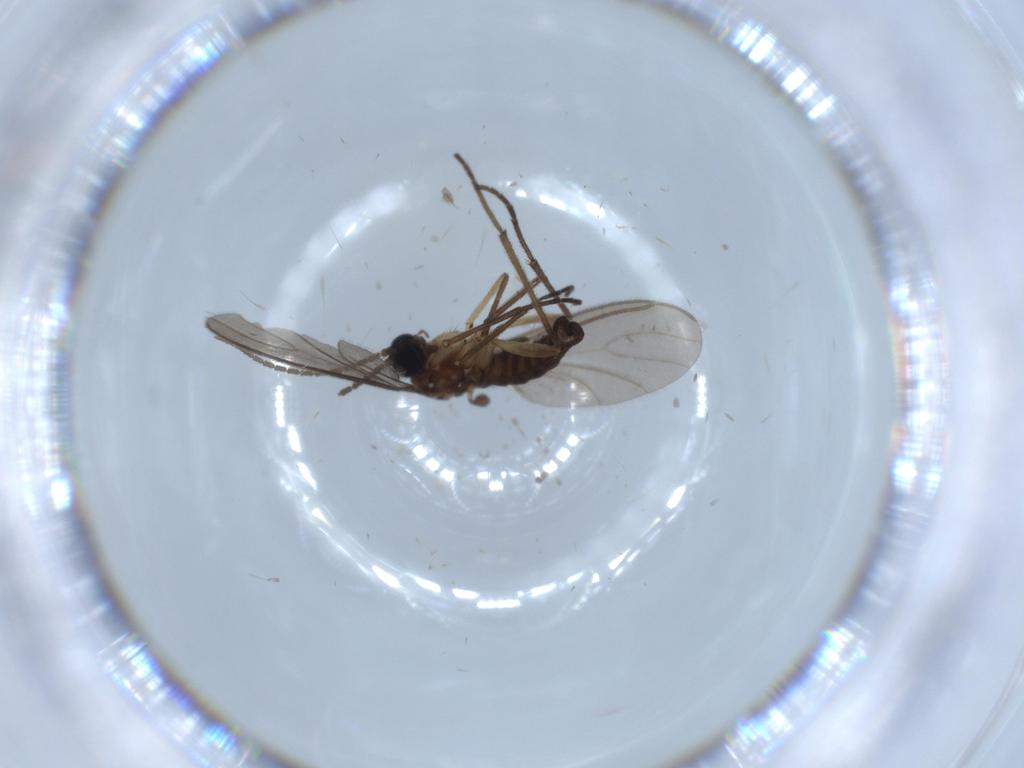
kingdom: Animalia
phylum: Arthropoda
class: Insecta
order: Diptera
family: Sciaridae
